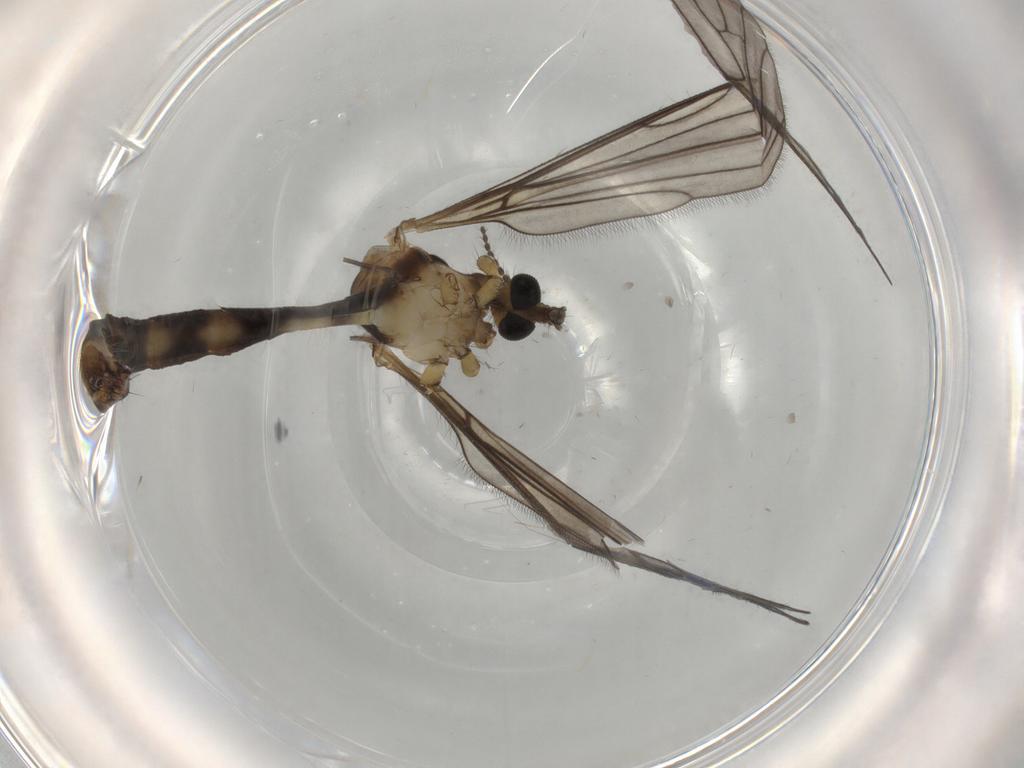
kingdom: Animalia
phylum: Arthropoda
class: Insecta
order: Diptera
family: Limoniidae
